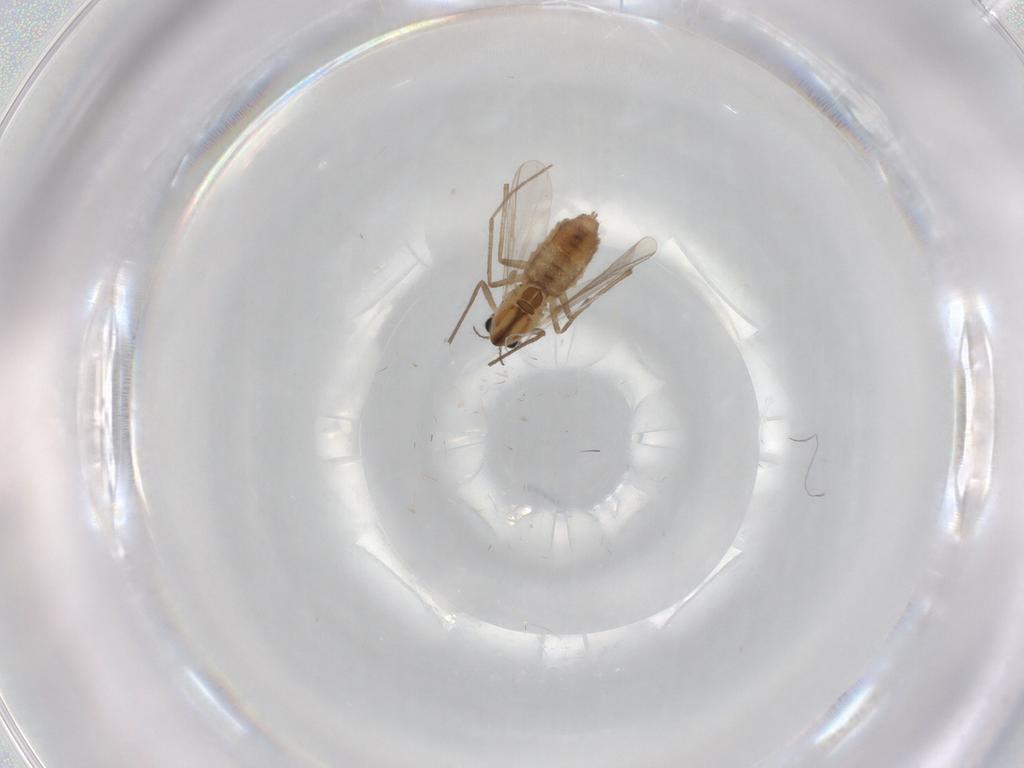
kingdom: Animalia
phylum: Arthropoda
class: Insecta
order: Diptera
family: Chironomidae
